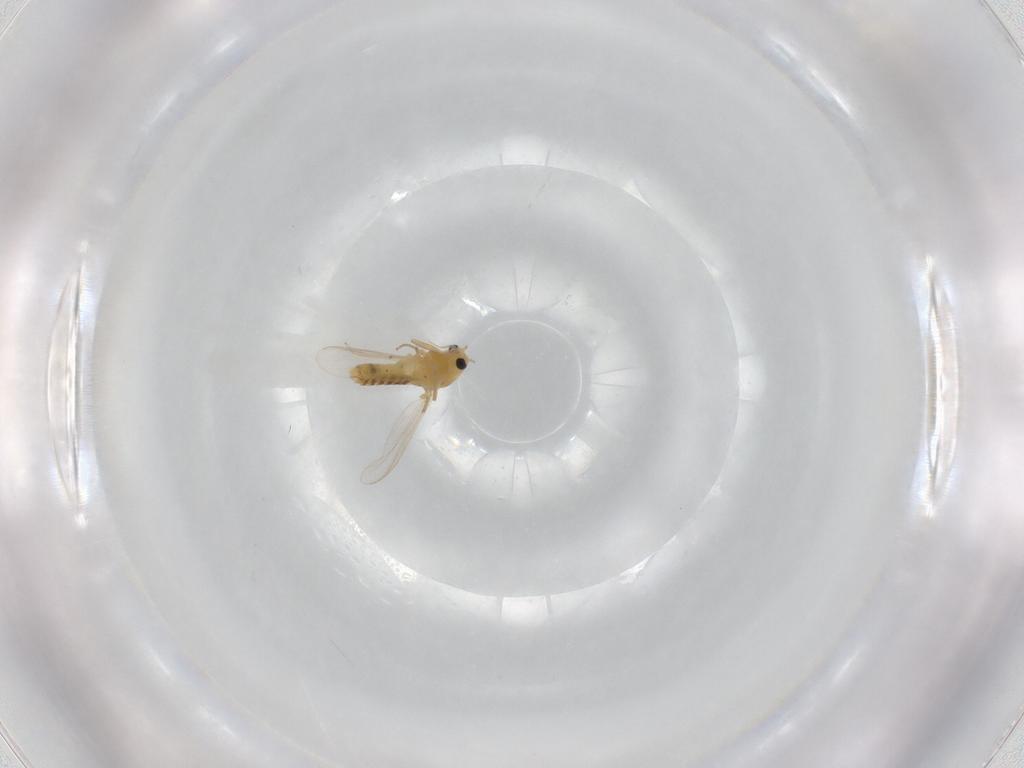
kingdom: Animalia
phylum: Arthropoda
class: Insecta
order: Diptera
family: Chironomidae
